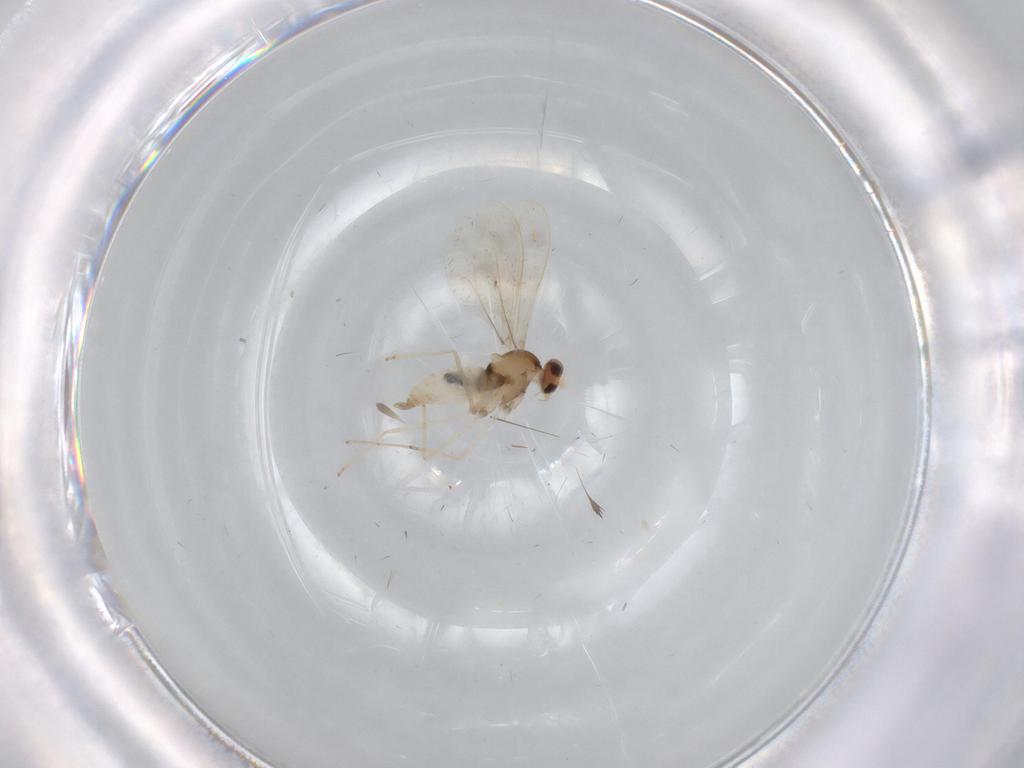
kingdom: Animalia
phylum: Arthropoda
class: Insecta
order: Diptera
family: Cecidomyiidae
